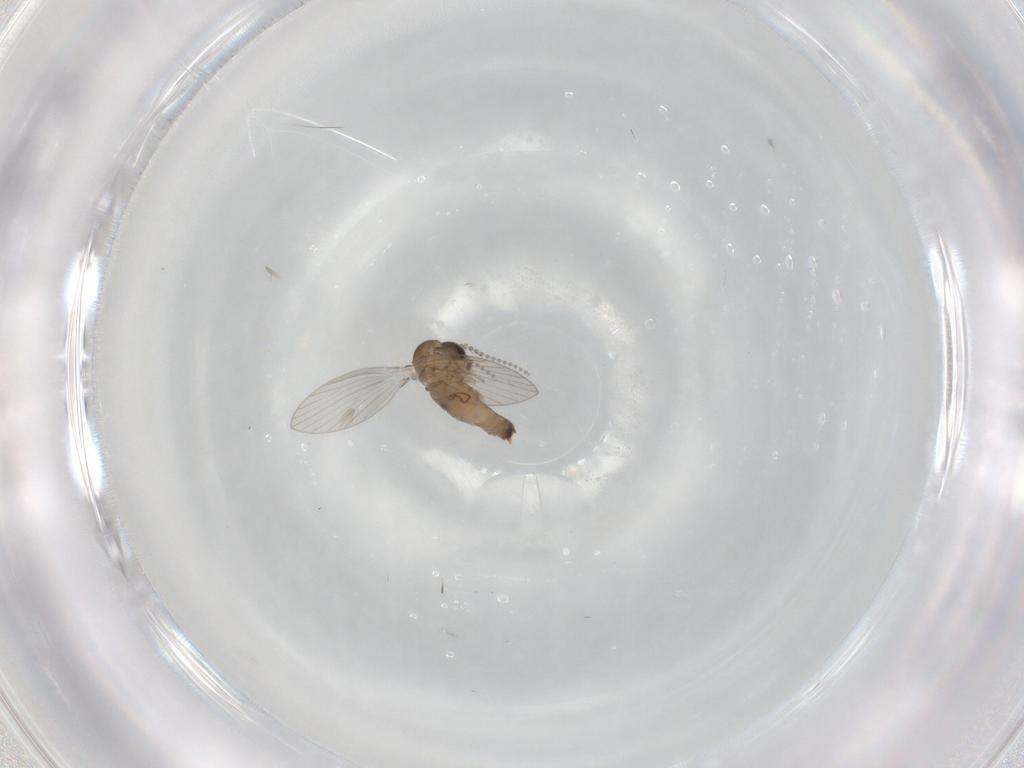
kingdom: Animalia
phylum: Arthropoda
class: Insecta
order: Diptera
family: Psychodidae
